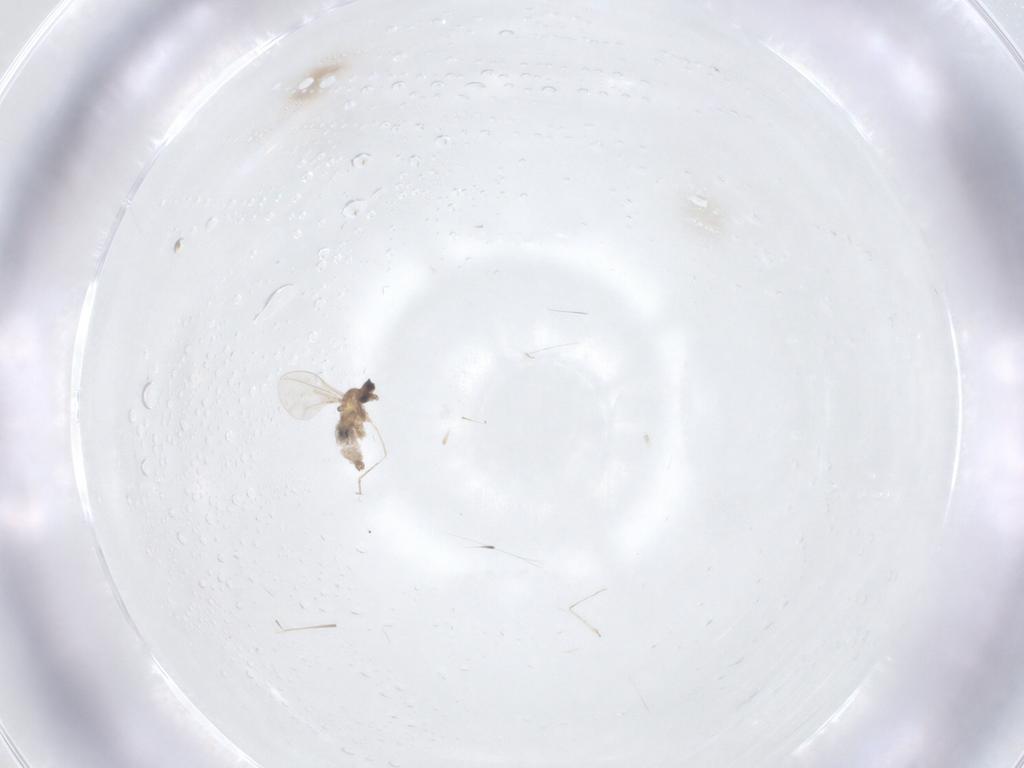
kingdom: Animalia
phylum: Arthropoda
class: Insecta
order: Diptera
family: Cecidomyiidae
